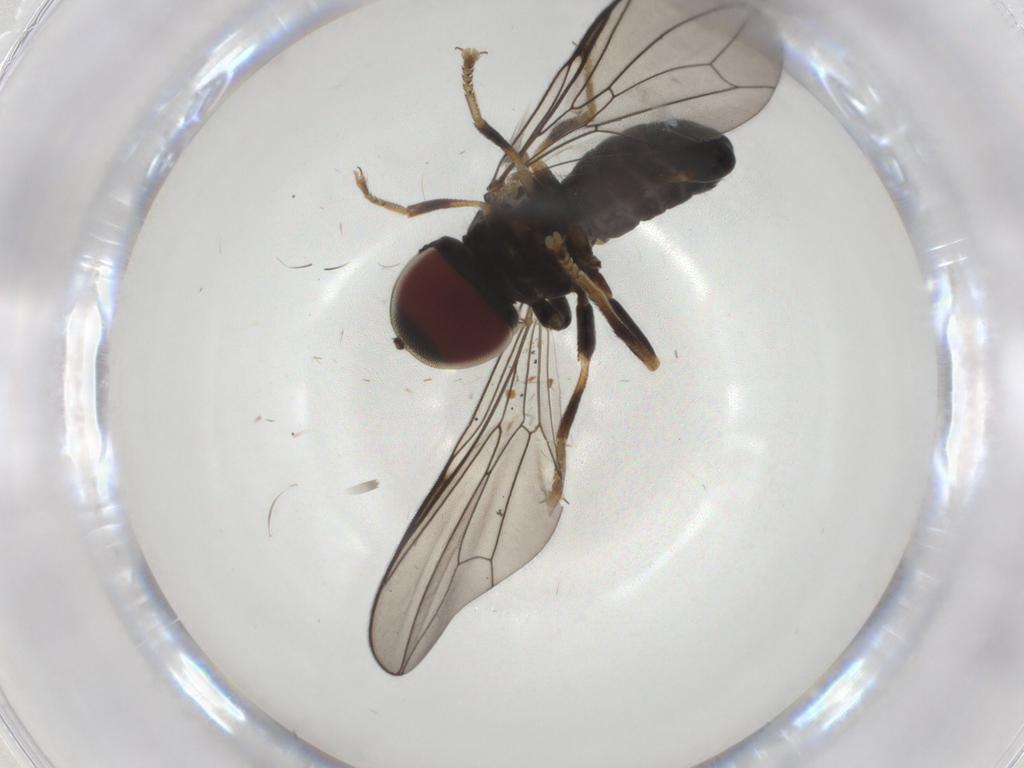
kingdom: Animalia
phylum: Arthropoda
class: Insecta
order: Diptera
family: Pipunculidae
